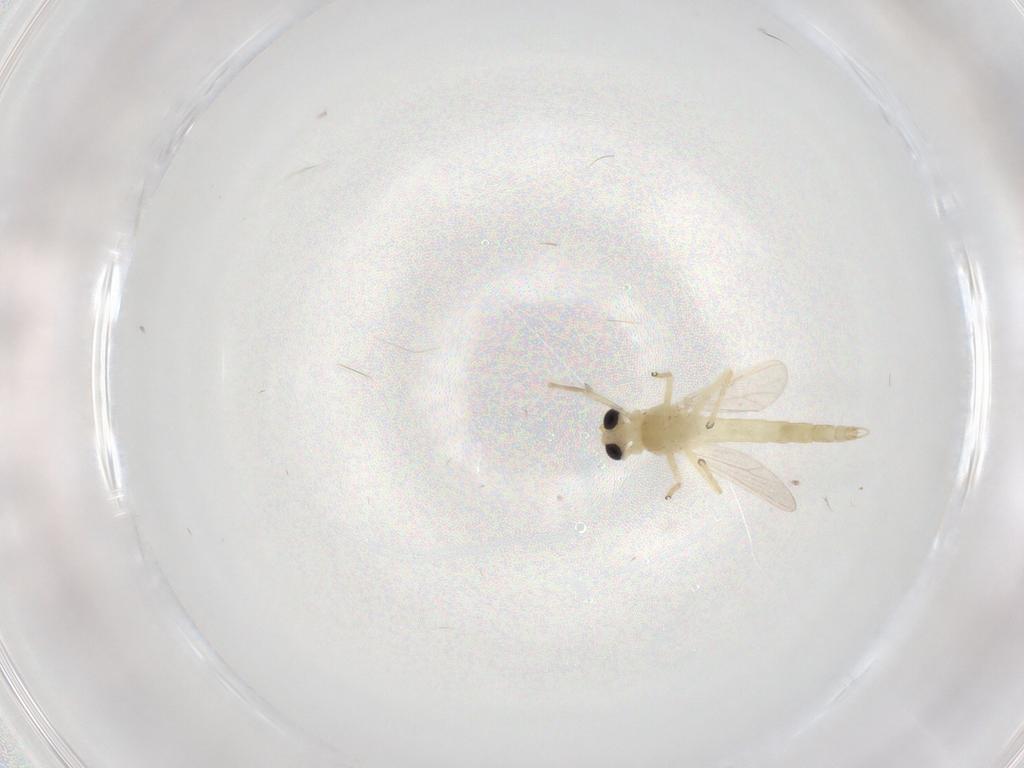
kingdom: Animalia
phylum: Arthropoda
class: Insecta
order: Diptera
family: Chironomidae
